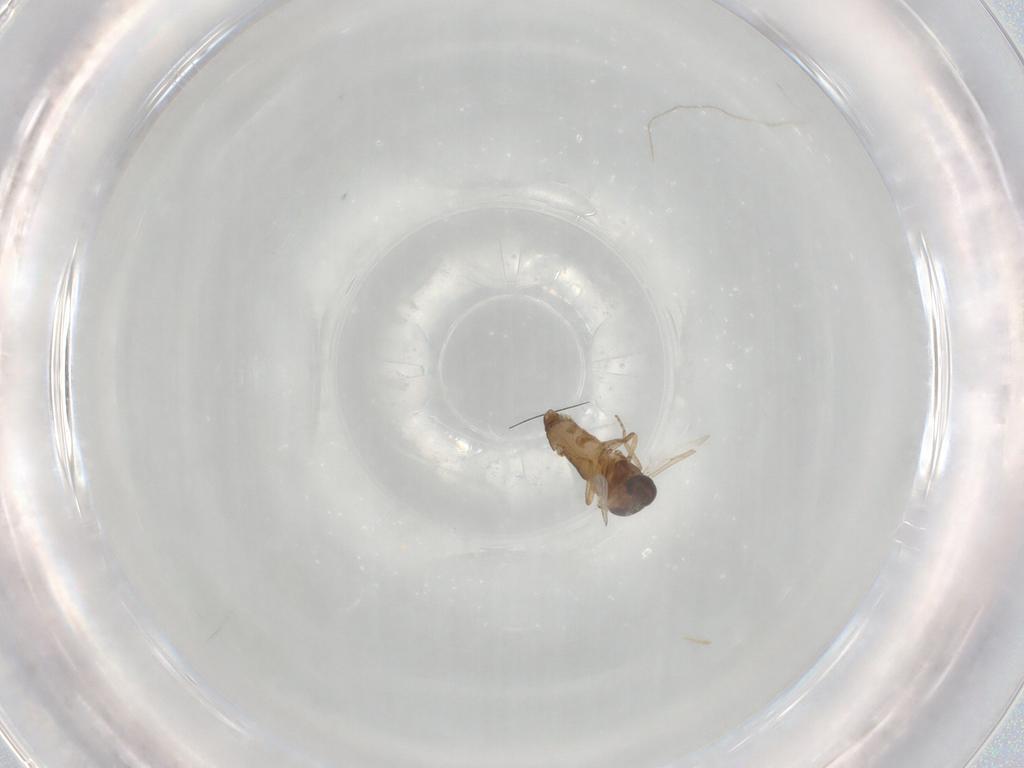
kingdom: Animalia
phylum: Arthropoda
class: Insecta
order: Diptera
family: Ceratopogonidae
